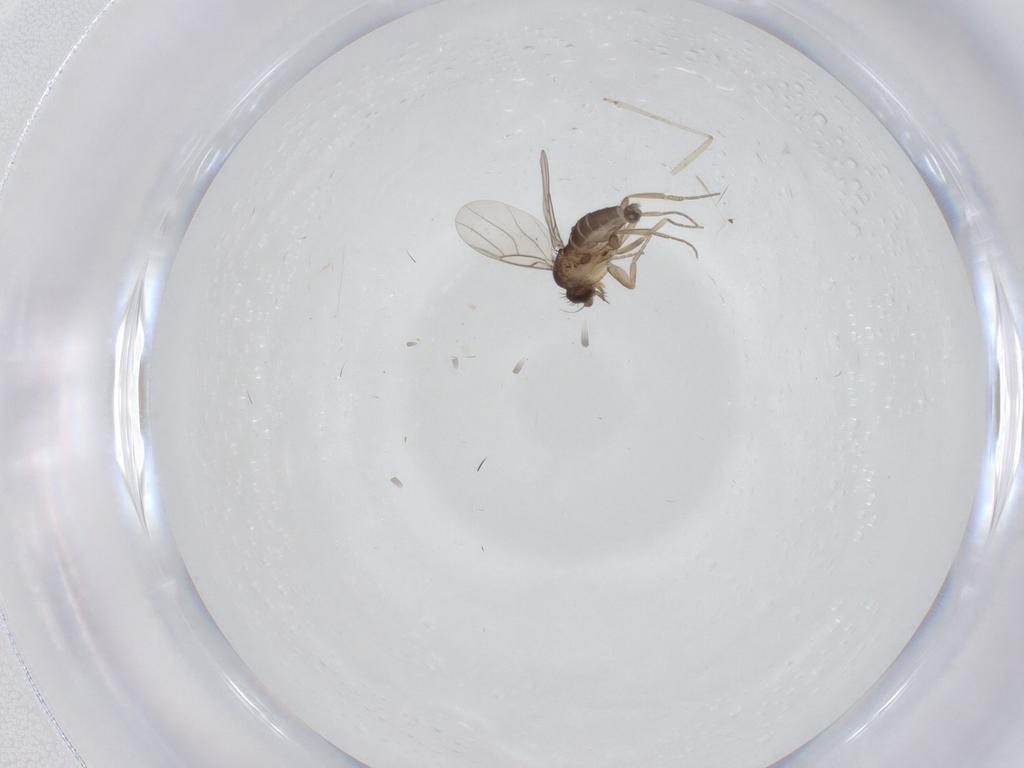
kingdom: Animalia
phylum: Arthropoda
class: Insecta
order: Diptera
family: Phoridae
